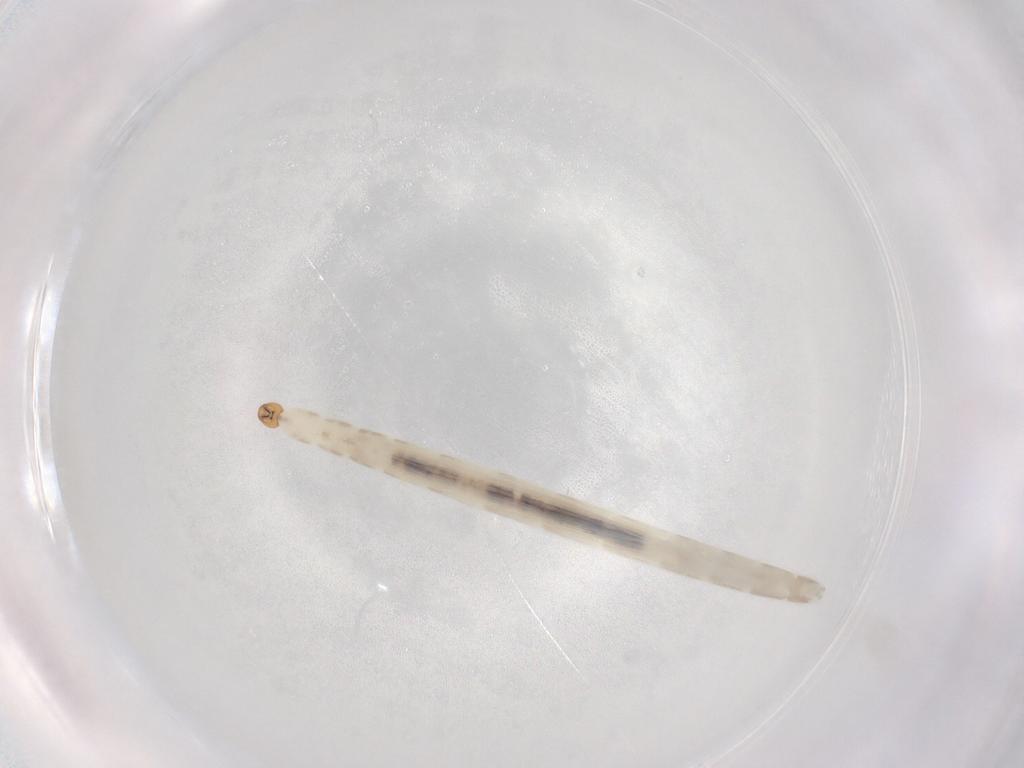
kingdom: Animalia
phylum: Arthropoda
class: Insecta
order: Diptera
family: Chironomidae
